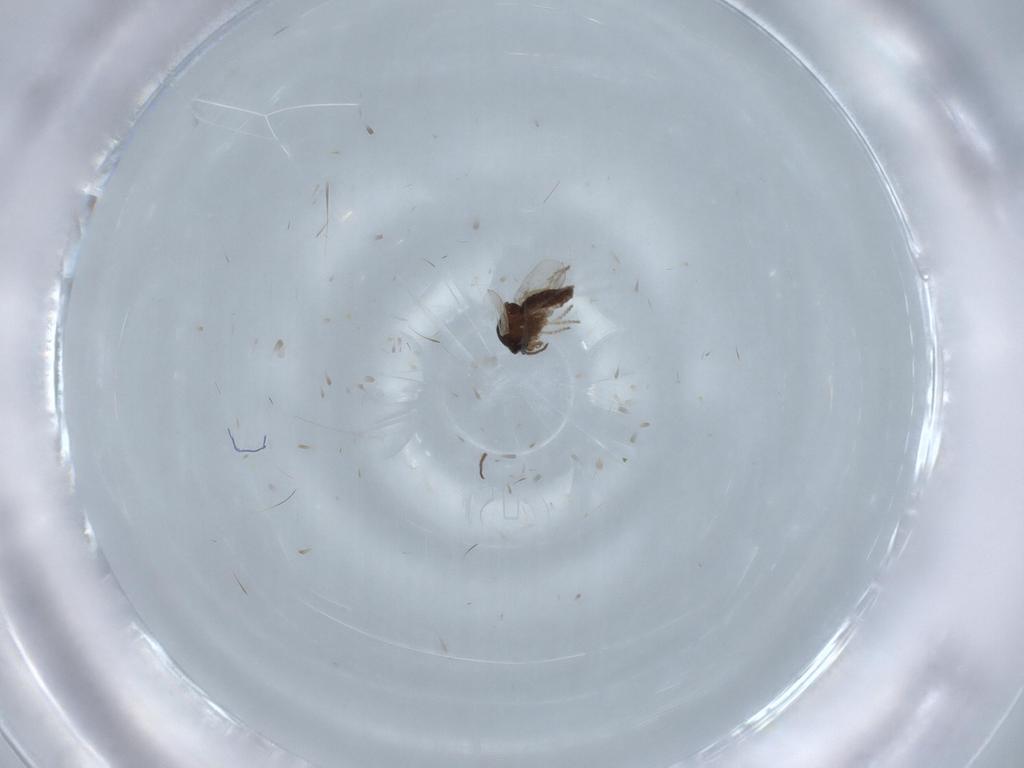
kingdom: Animalia
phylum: Arthropoda
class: Insecta
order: Diptera
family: Ceratopogonidae
